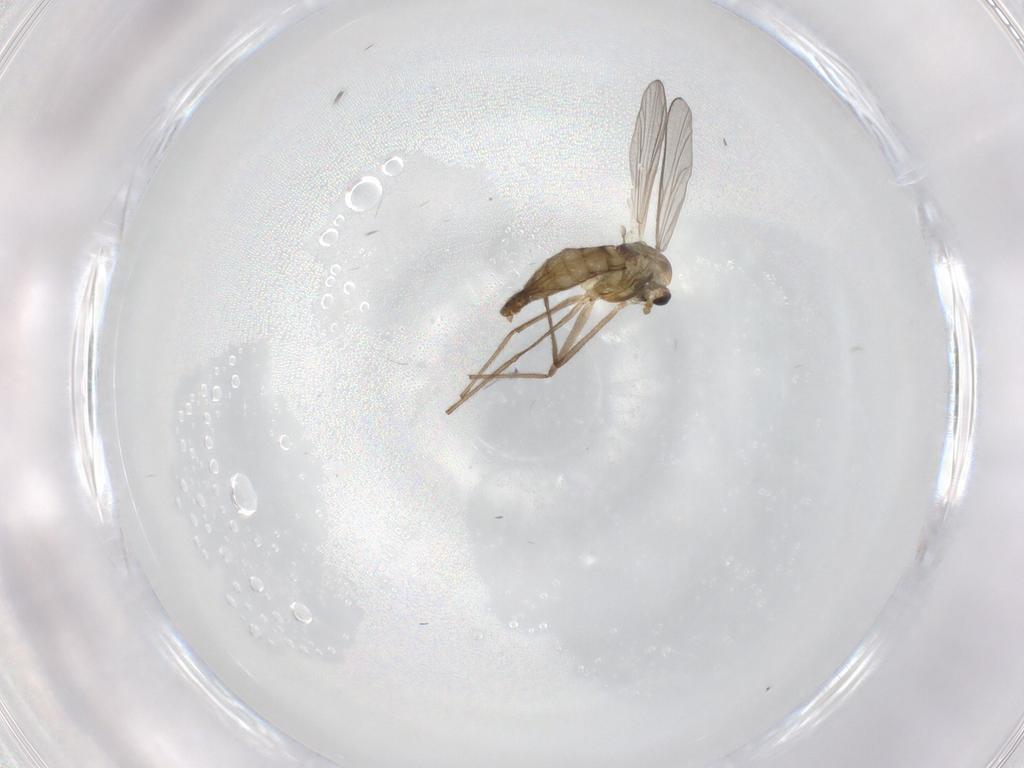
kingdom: Animalia
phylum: Arthropoda
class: Insecta
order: Diptera
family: Chironomidae
